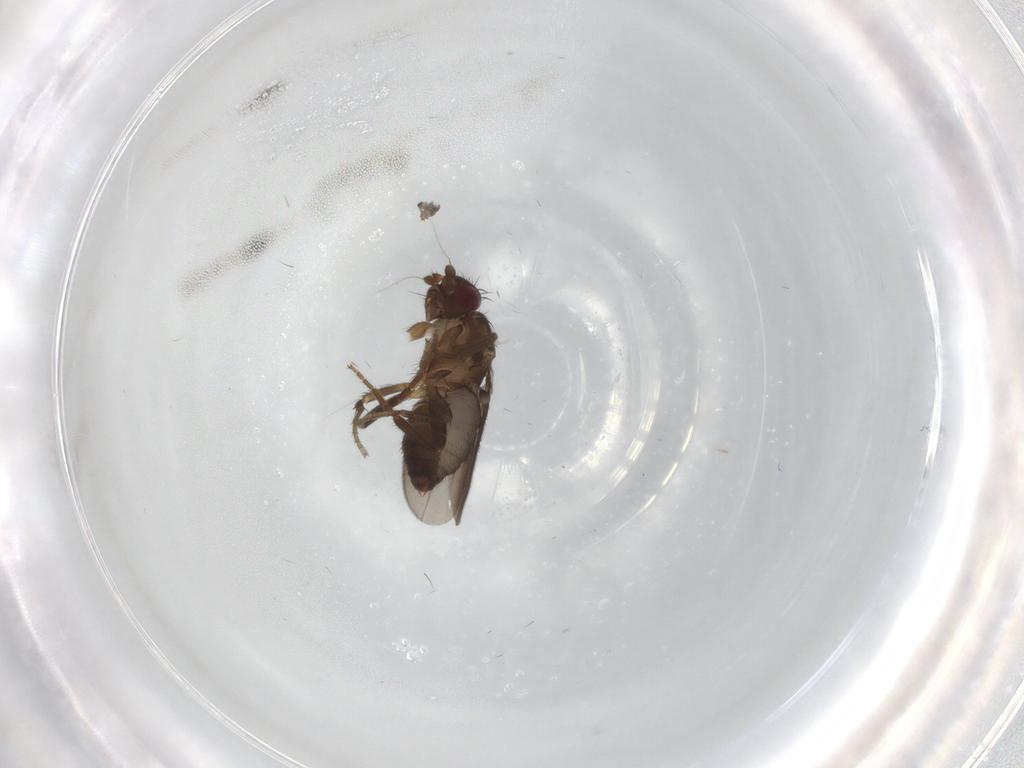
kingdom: Animalia
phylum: Arthropoda
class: Insecta
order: Diptera
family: Sphaeroceridae
